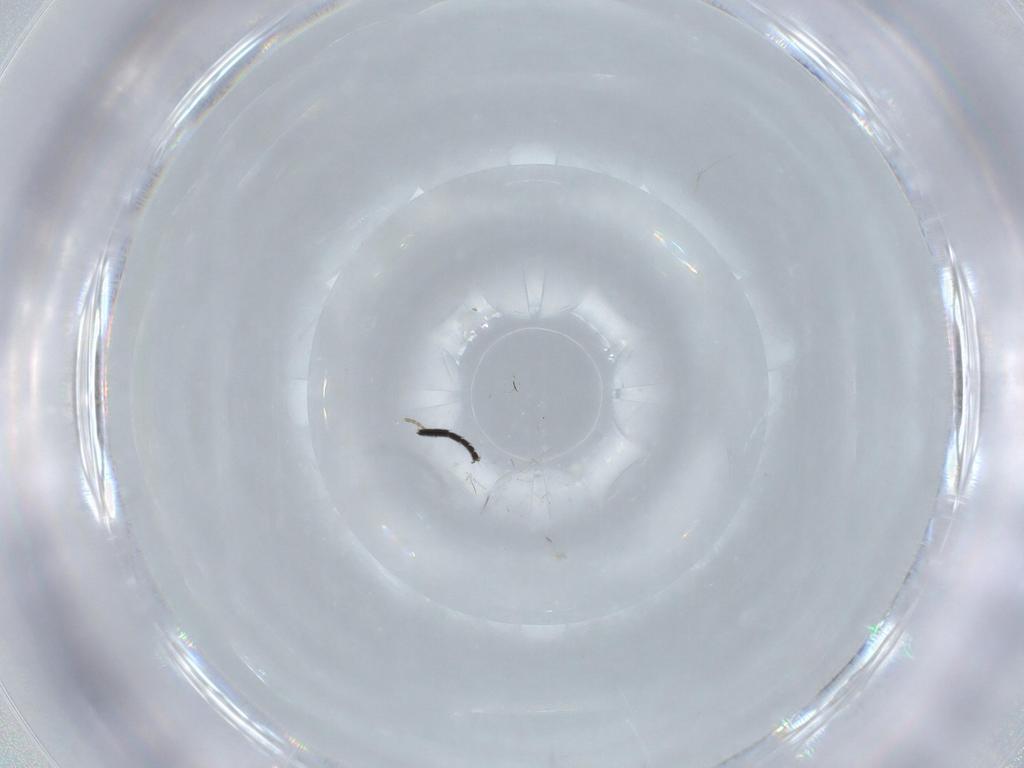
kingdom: Animalia
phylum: Arthropoda
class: Insecta
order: Diptera
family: Agromyzidae
